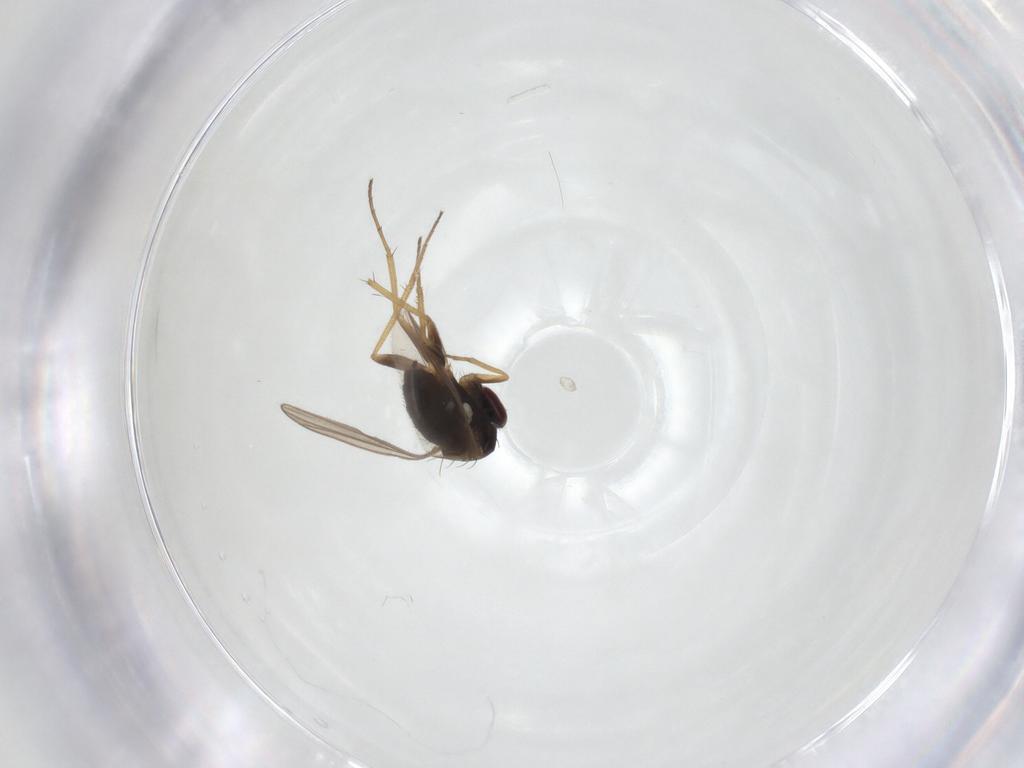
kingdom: Animalia
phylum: Arthropoda
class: Insecta
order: Diptera
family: Dolichopodidae
